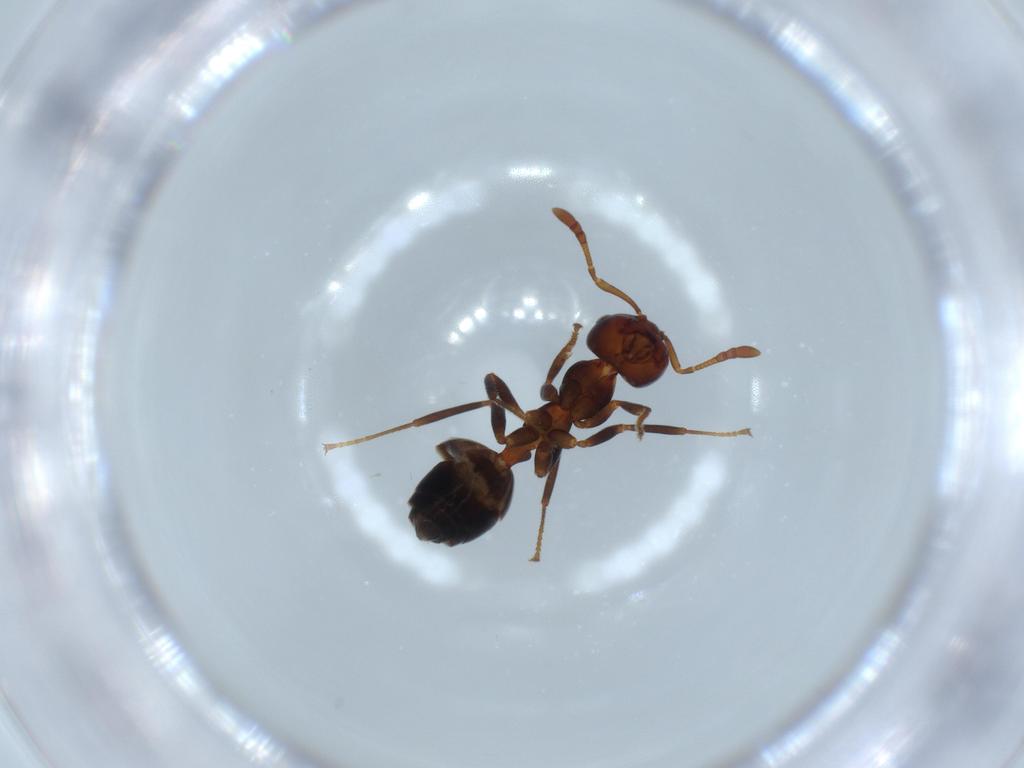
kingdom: Animalia
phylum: Arthropoda
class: Insecta
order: Hymenoptera
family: Formicidae
